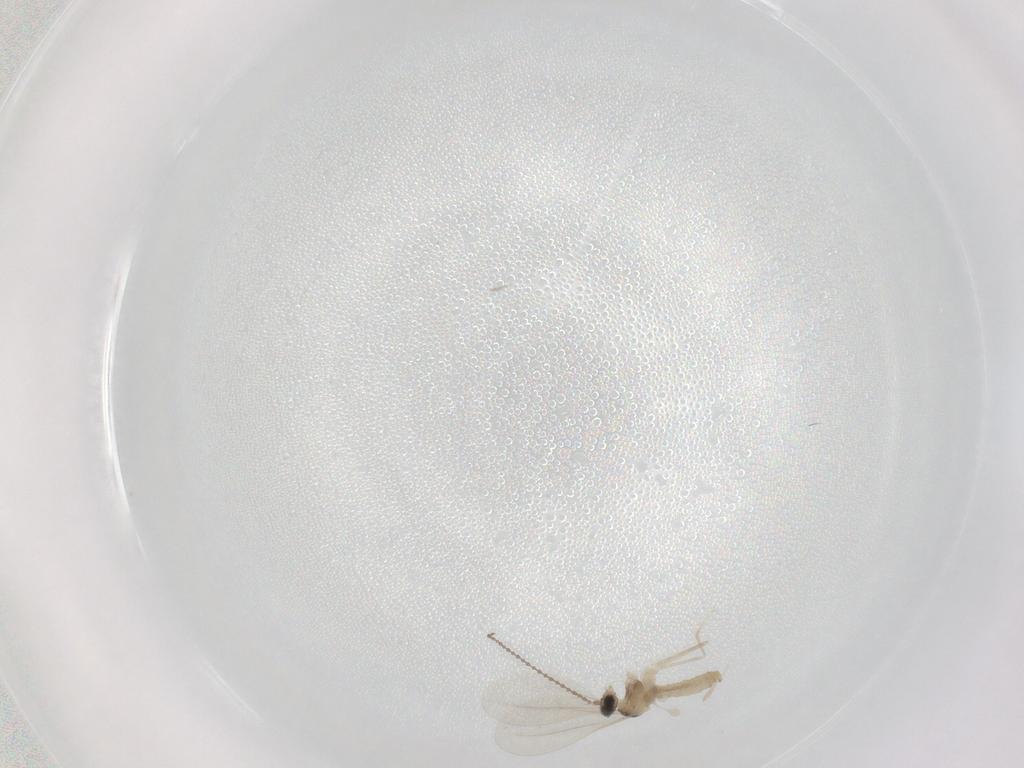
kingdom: Animalia
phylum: Arthropoda
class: Insecta
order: Diptera
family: Cecidomyiidae
